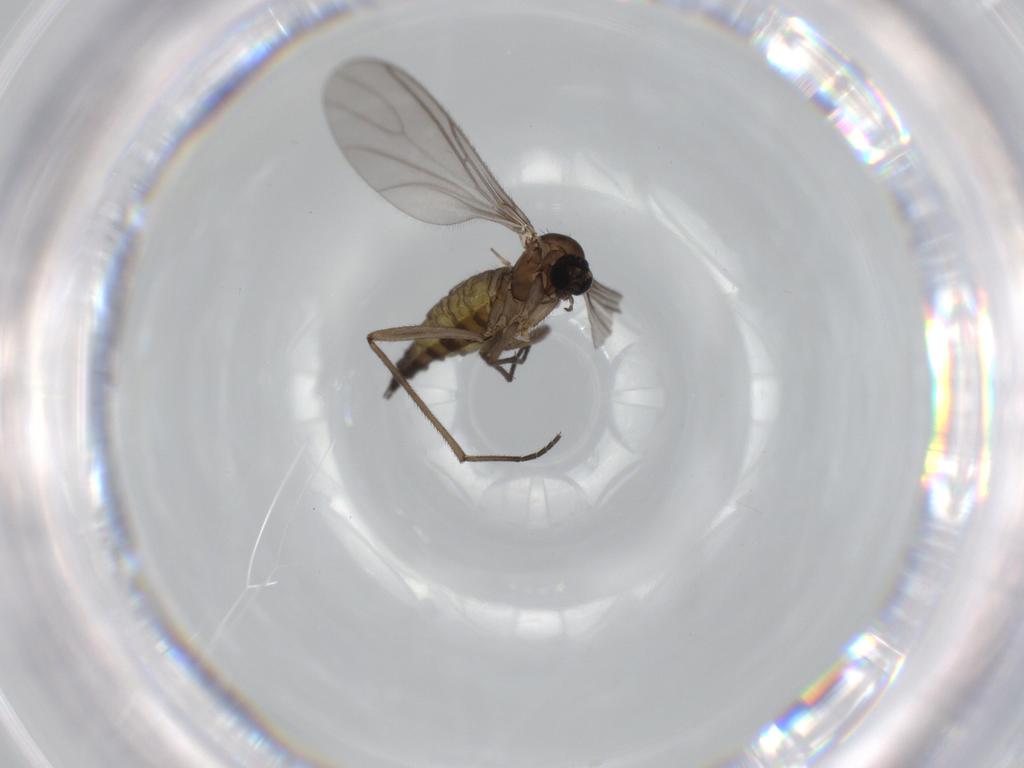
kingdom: Animalia
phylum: Arthropoda
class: Insecta
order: Diptera
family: Sciaridae
